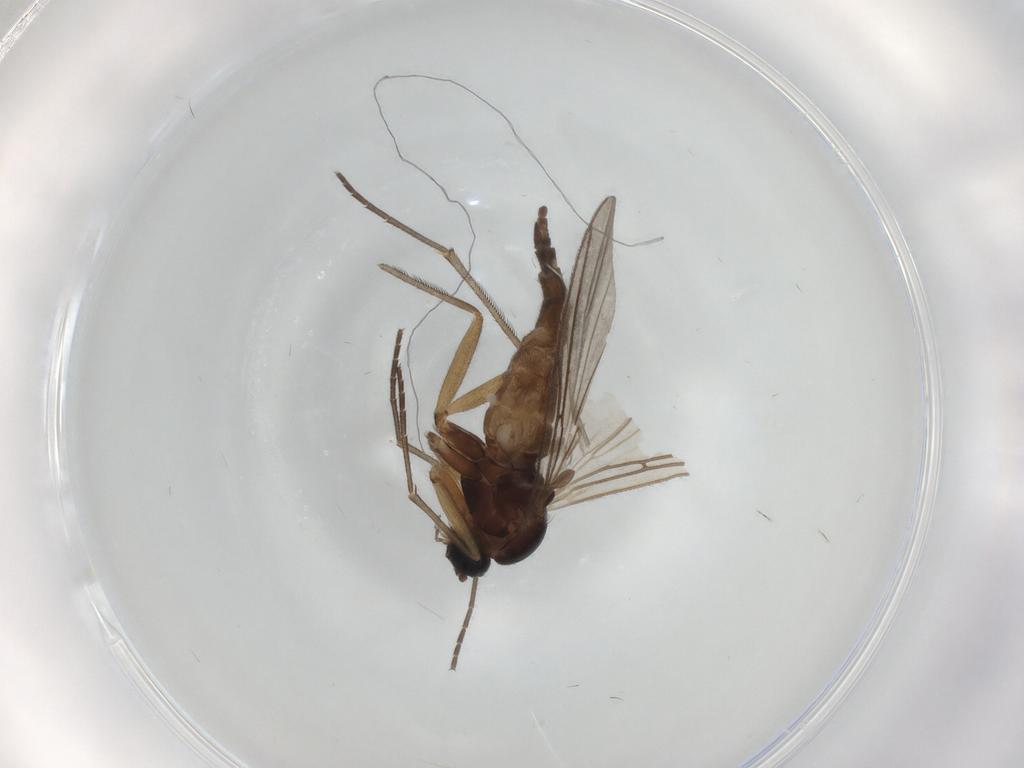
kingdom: Animalia
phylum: Arthropoda
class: Insecta
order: Diptera
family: Sciaridae
